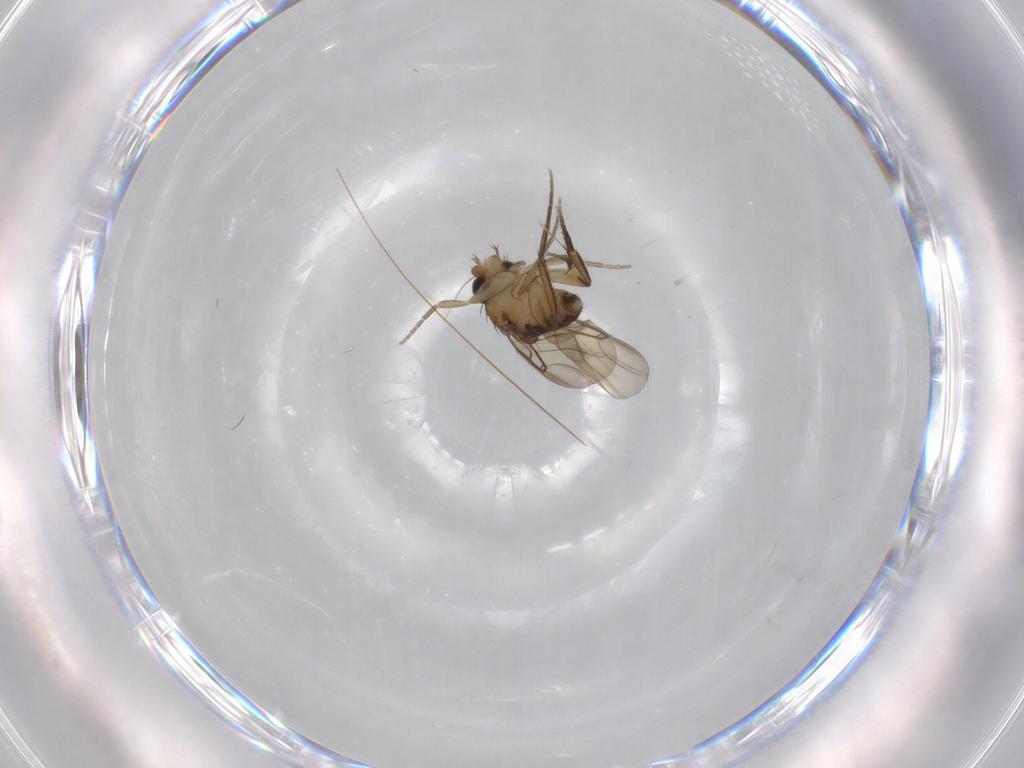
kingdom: Animalia
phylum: Arthropoda
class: Insecta
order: Diptera
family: Phoridae
